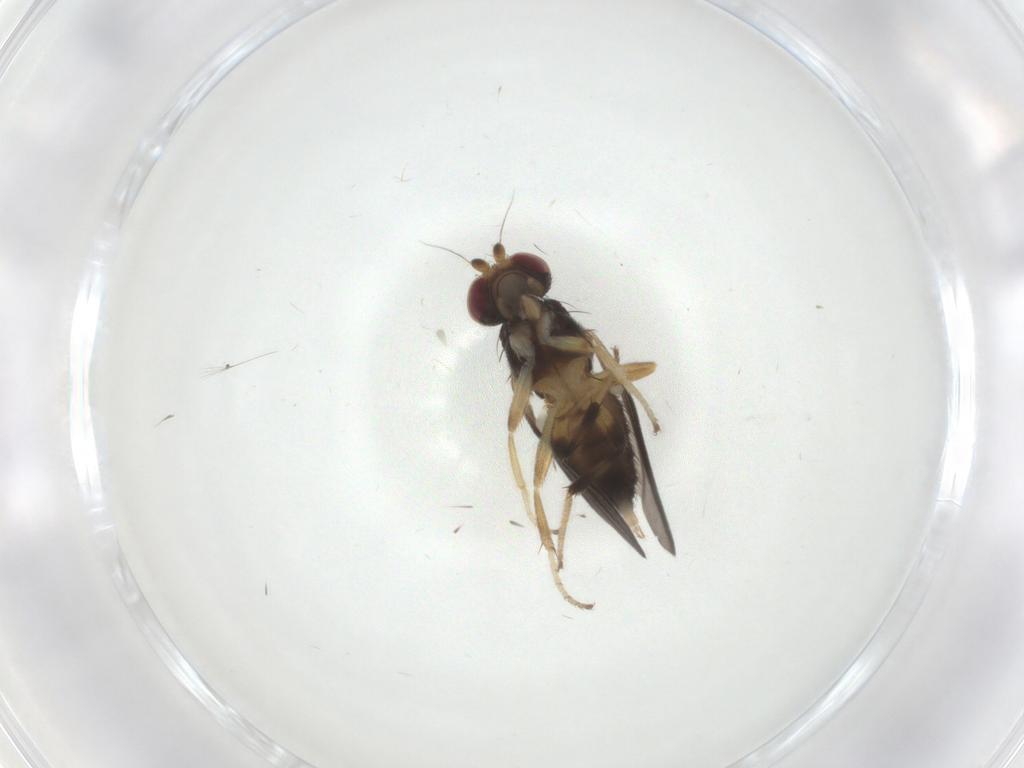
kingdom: Animalia
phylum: Arthropoda
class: Insecta
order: Diptera
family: Clusiidae
